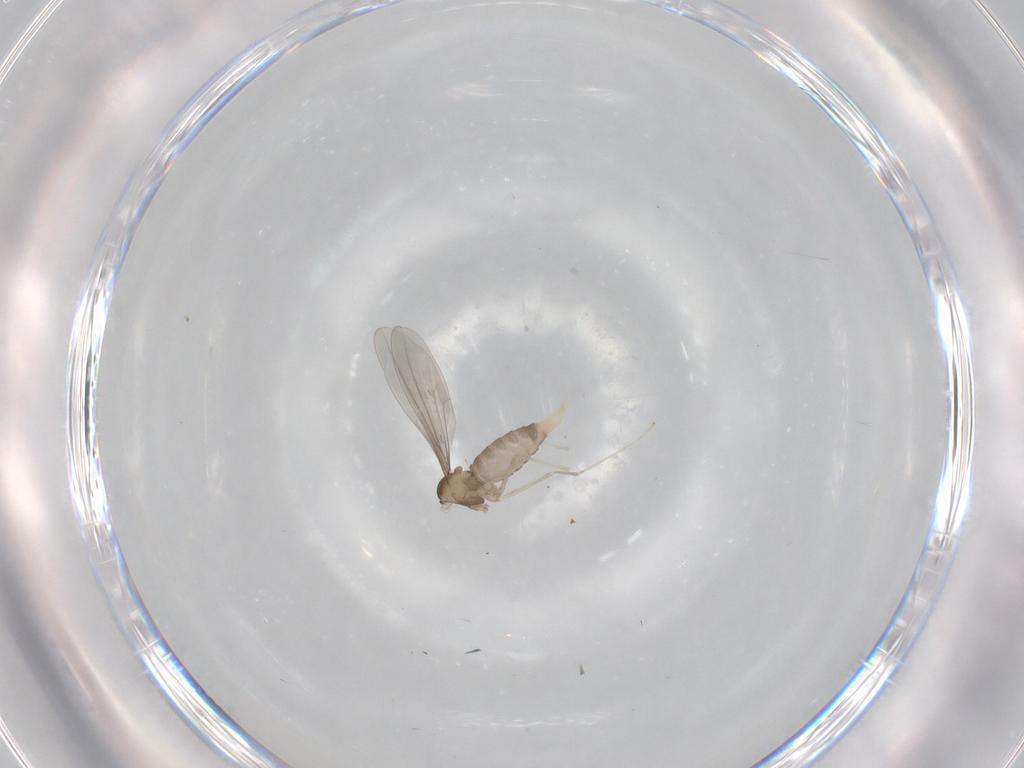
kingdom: Animalia
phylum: Arthropoda
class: Insecta
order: Diptera
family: Cecidomyiidae
